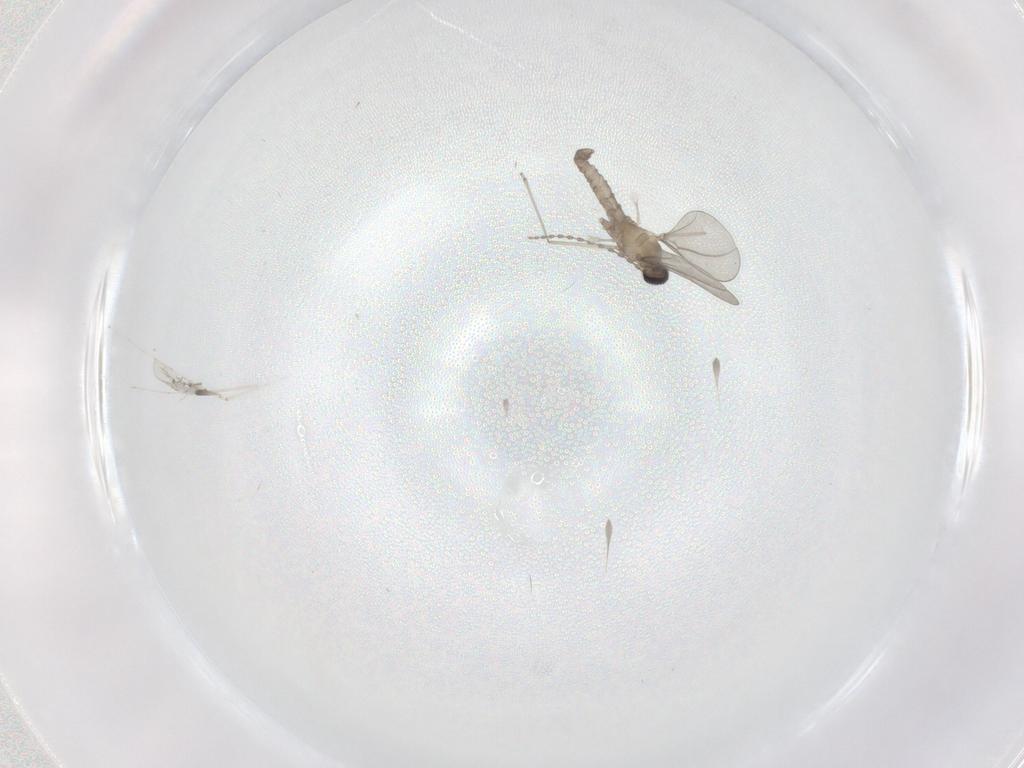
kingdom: Animalia
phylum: Arthropoda
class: Insecta
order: Diptera
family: Cecidomyiidae
